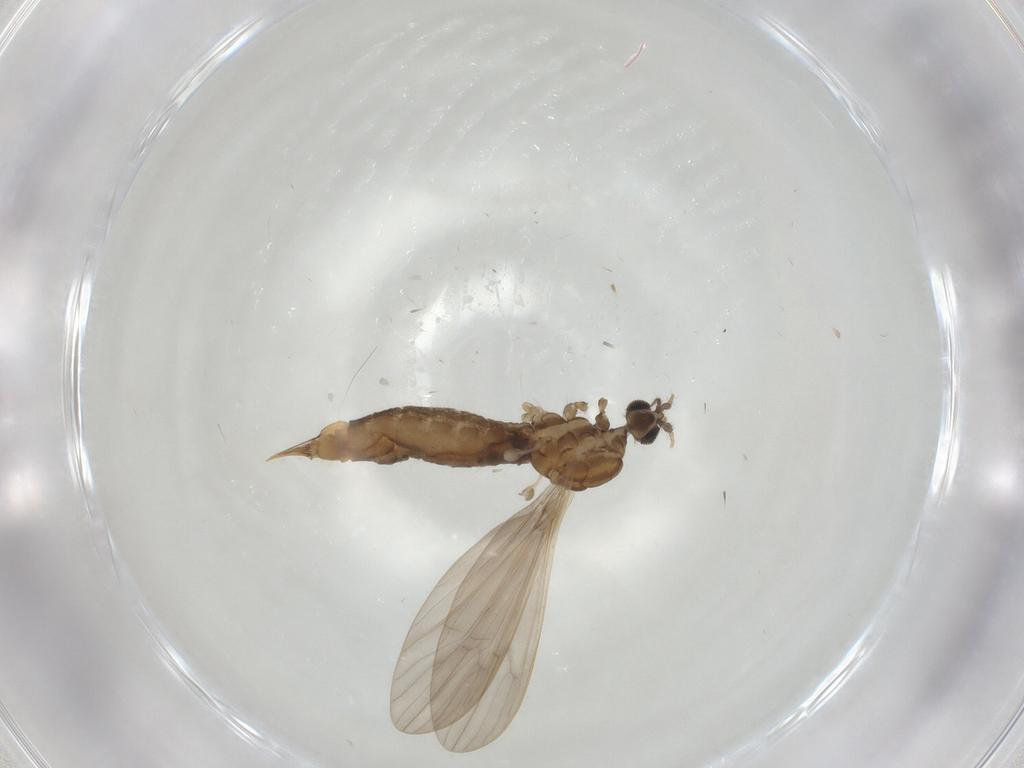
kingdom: Animalia
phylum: Arthropoda
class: Insecta
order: Diptera
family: Limoniidae
